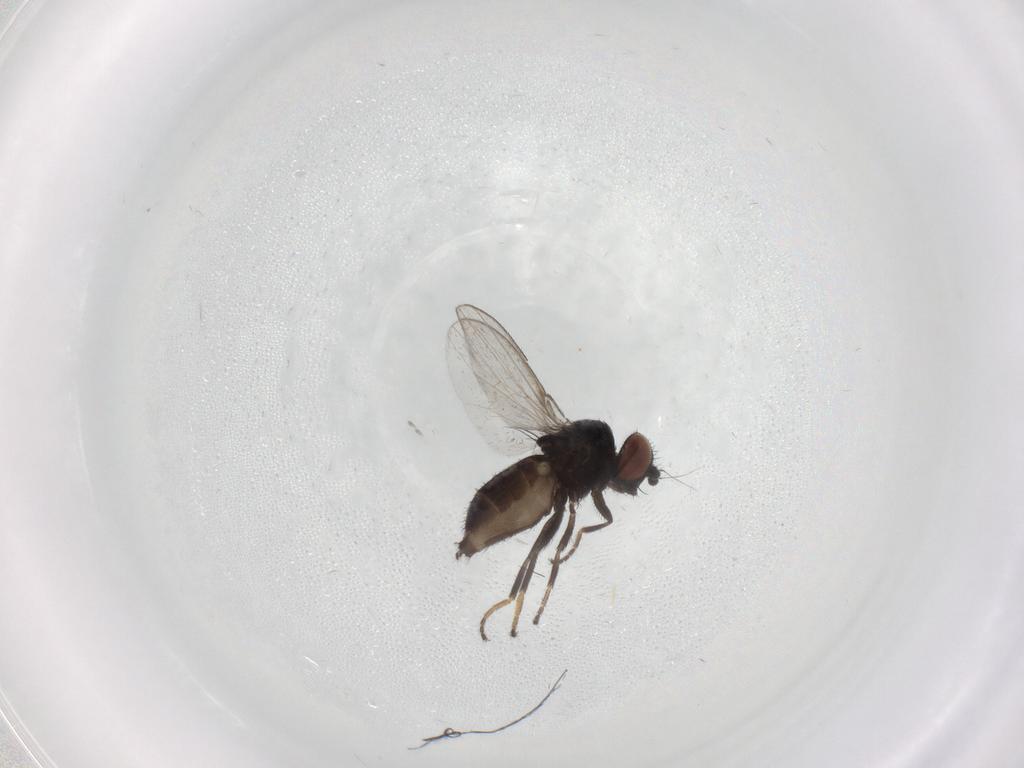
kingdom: Animalia
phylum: Arthropoda
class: Insecta
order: Diptera
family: Milichiidae
